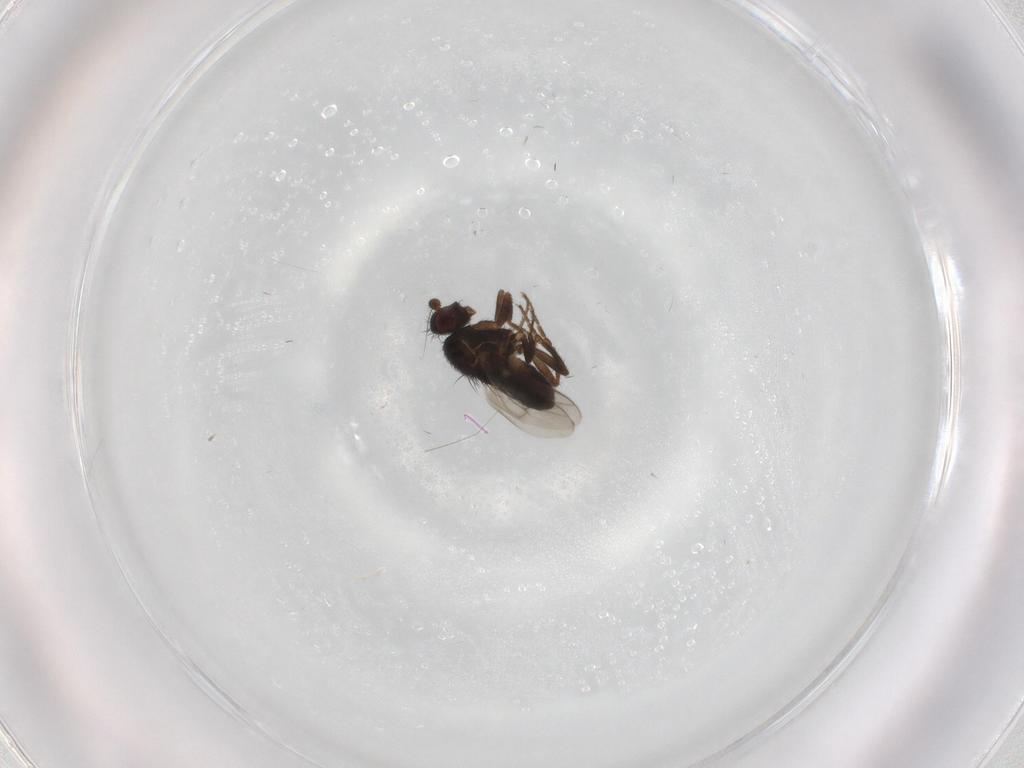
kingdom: Animalia
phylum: Arthropoda
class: Insecta
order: Diptera
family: Sphaeroceridae
